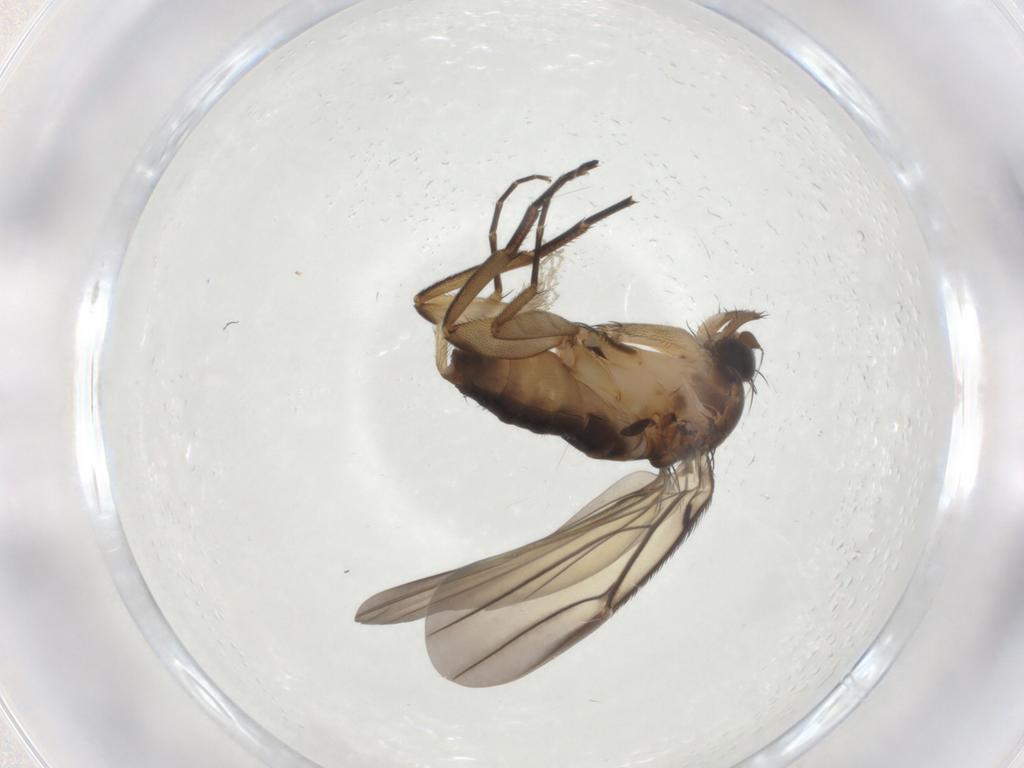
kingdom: Animalia
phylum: Arthropoda
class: Insecta
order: Diptera
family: Phoridae
